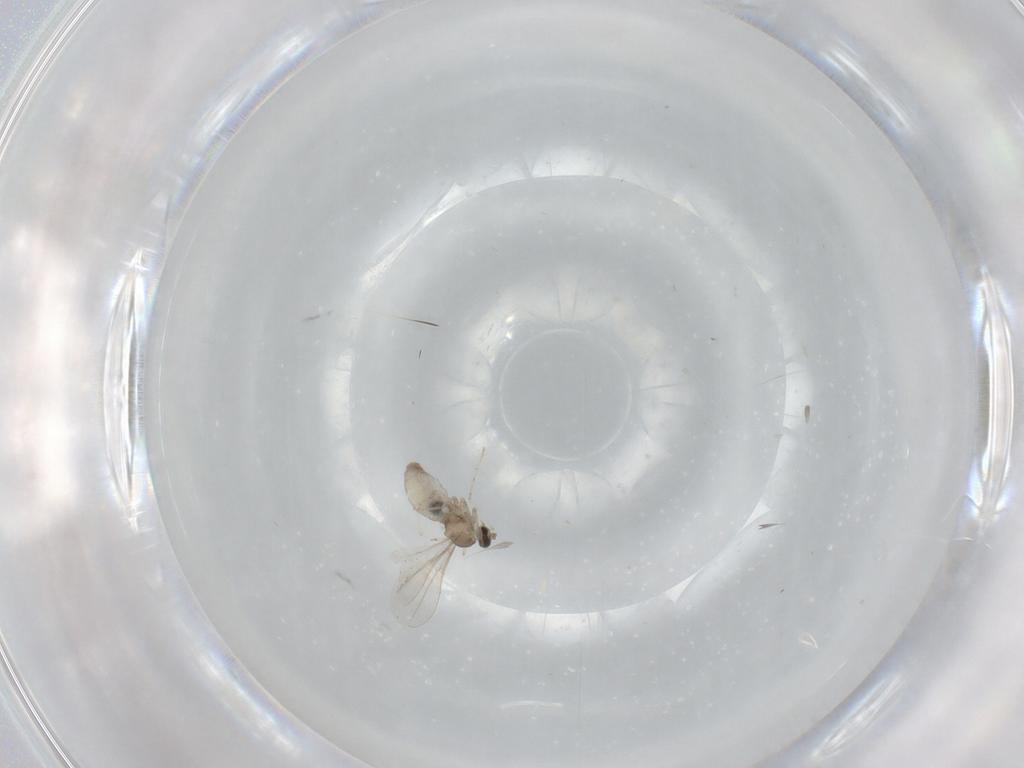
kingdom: Animalia
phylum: Arthropoda
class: Insecta
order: Diptera
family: Cecidomyiidae
